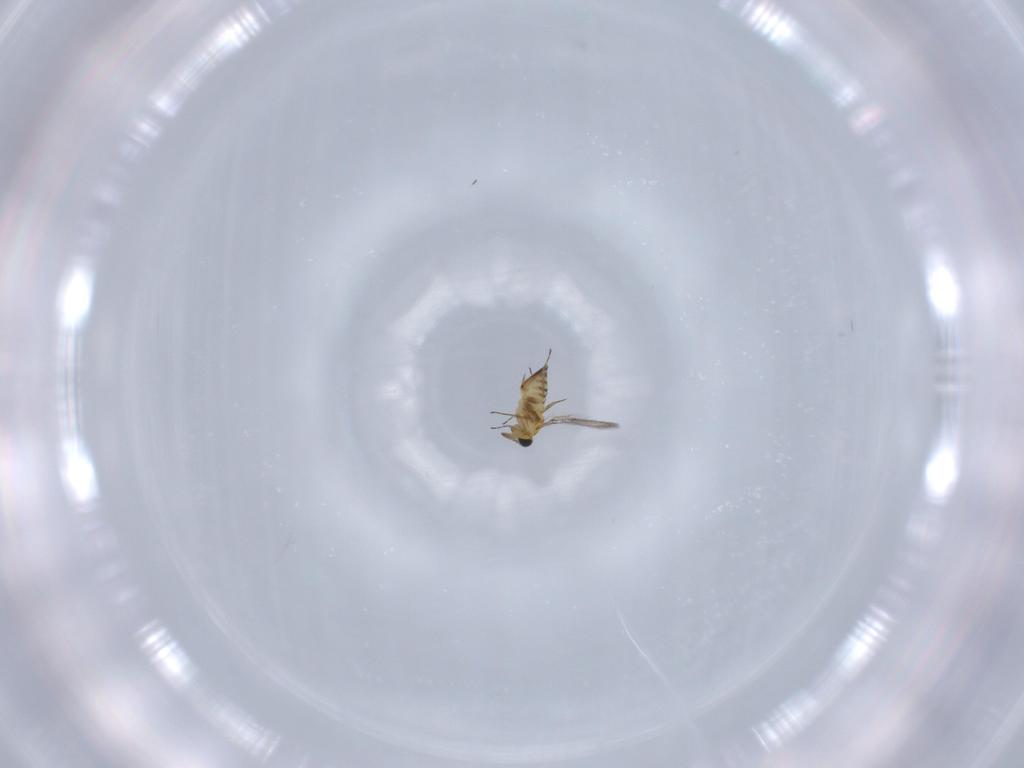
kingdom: Animalia
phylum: Arthropoda
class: Insecta
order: Hymenoptera
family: Trichogrammatidae
